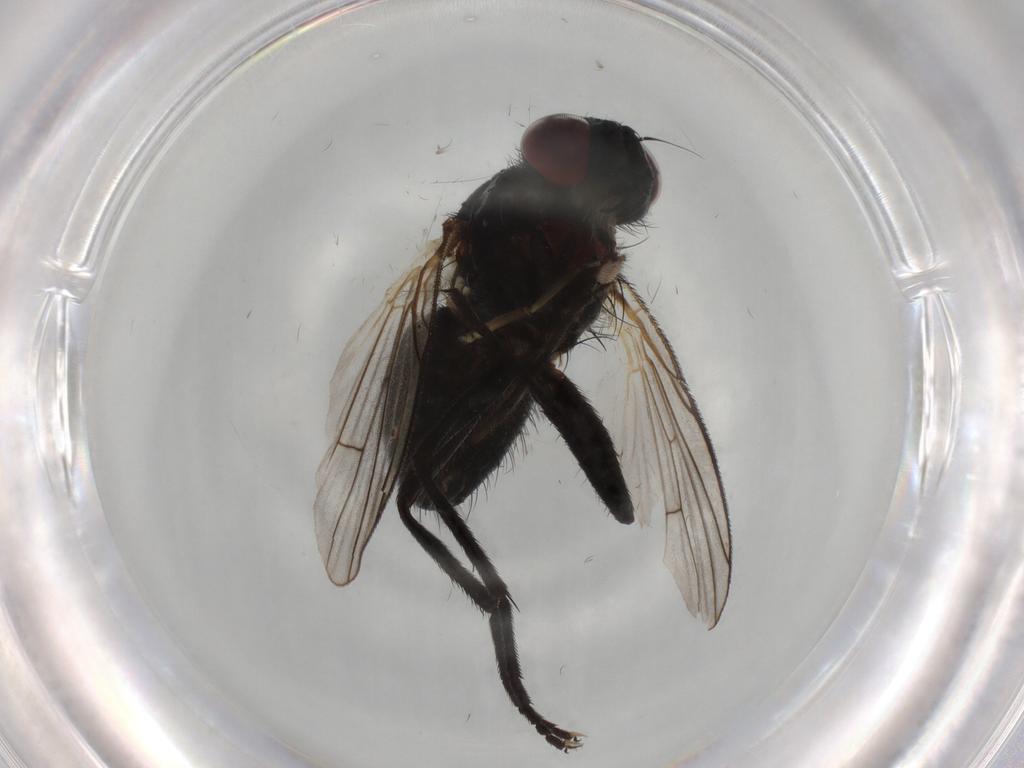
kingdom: Animalia
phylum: Arthropoda
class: Insecta
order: Diptera
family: Muscidae
